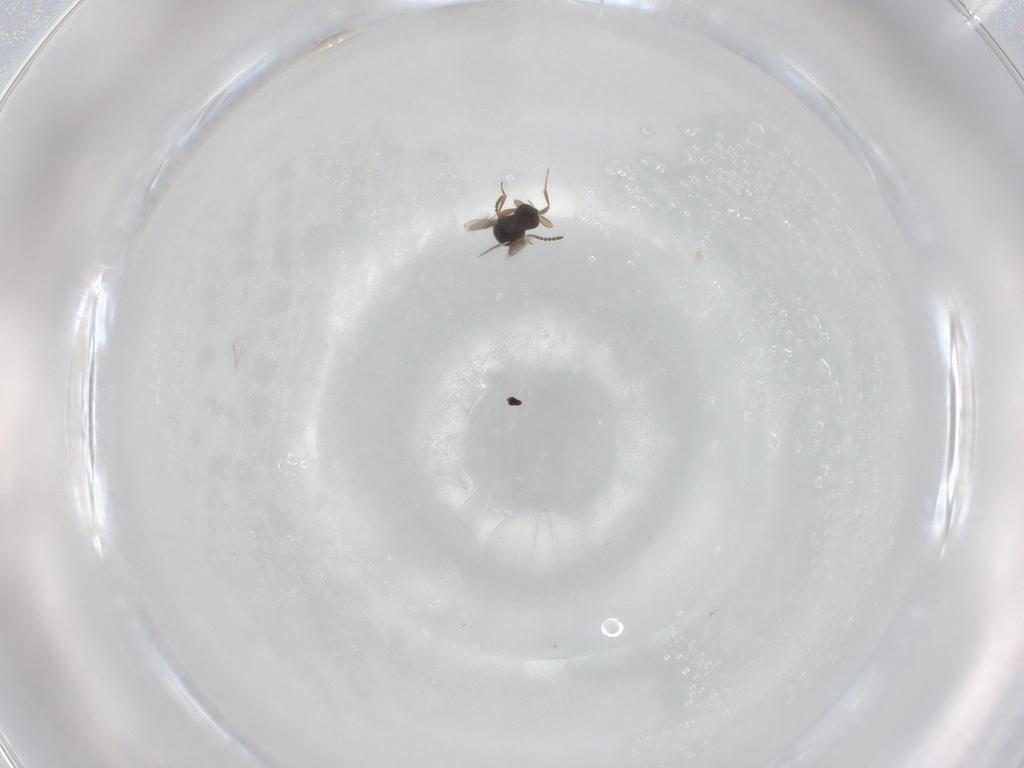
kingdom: Animalia
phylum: Arthropoda
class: Insecta
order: Hymenoptera
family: Scelionidae
